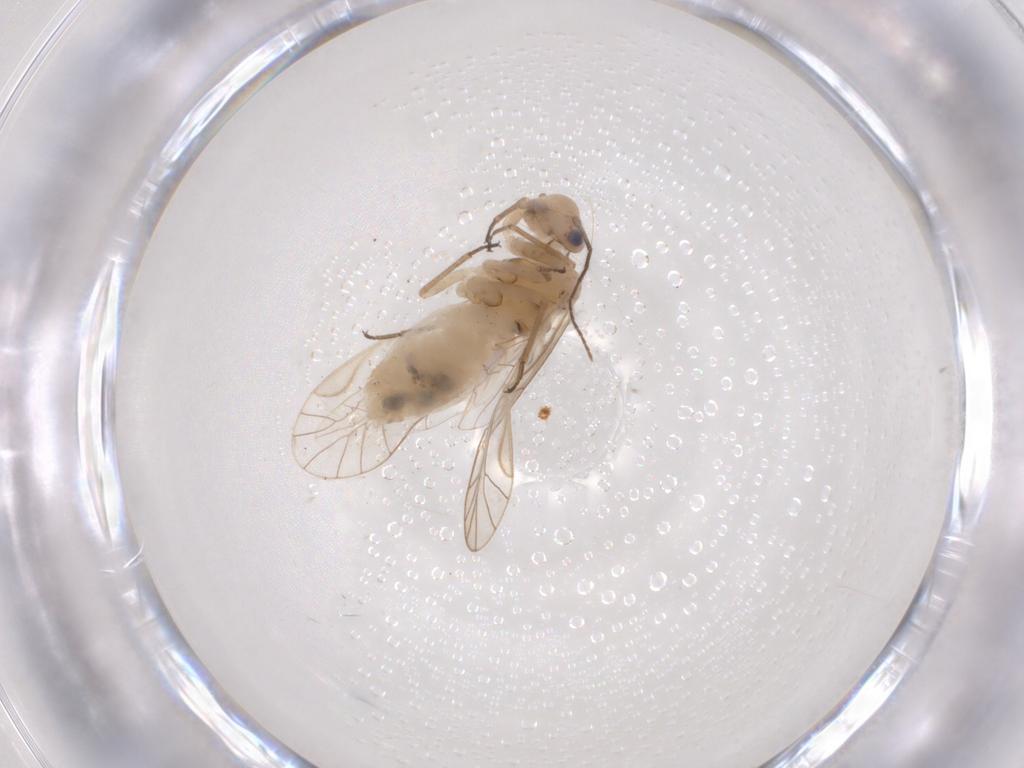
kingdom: Animalia
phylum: Arthropoda
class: Insecta
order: Psocodea
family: Elipsocidae
